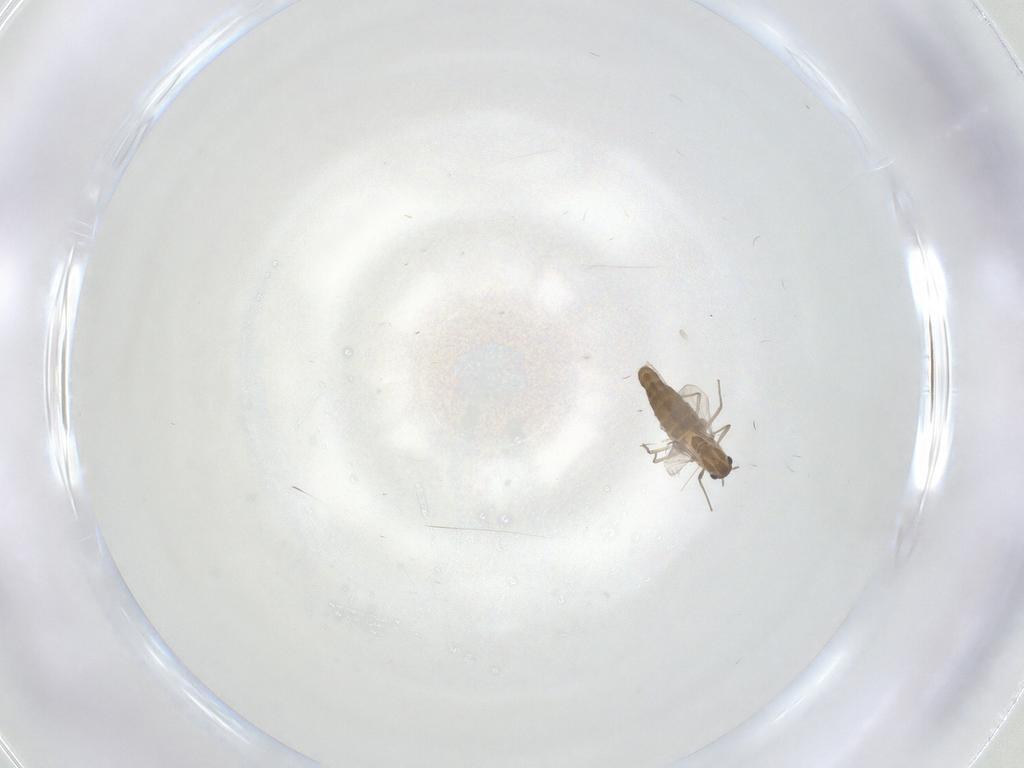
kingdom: Animalia
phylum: Arthropoda
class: Insecta
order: Diptera
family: Chironomidae
